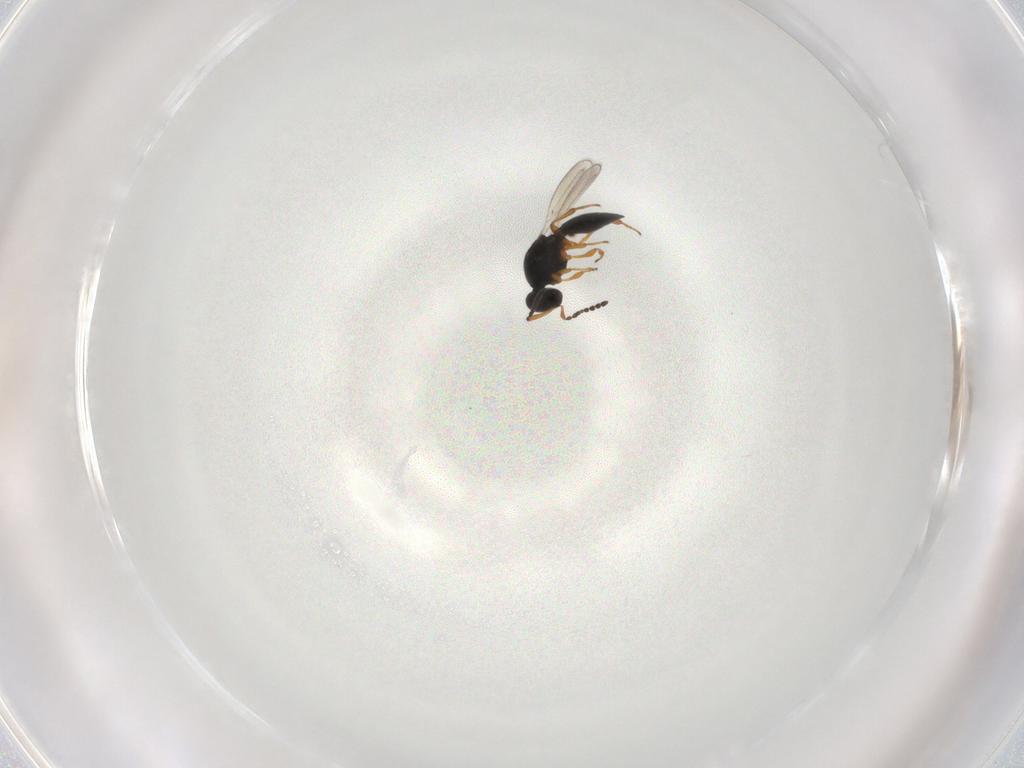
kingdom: Animalia
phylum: Arthropoda
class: Insecta
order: Hymenoptera
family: Platygastridae
